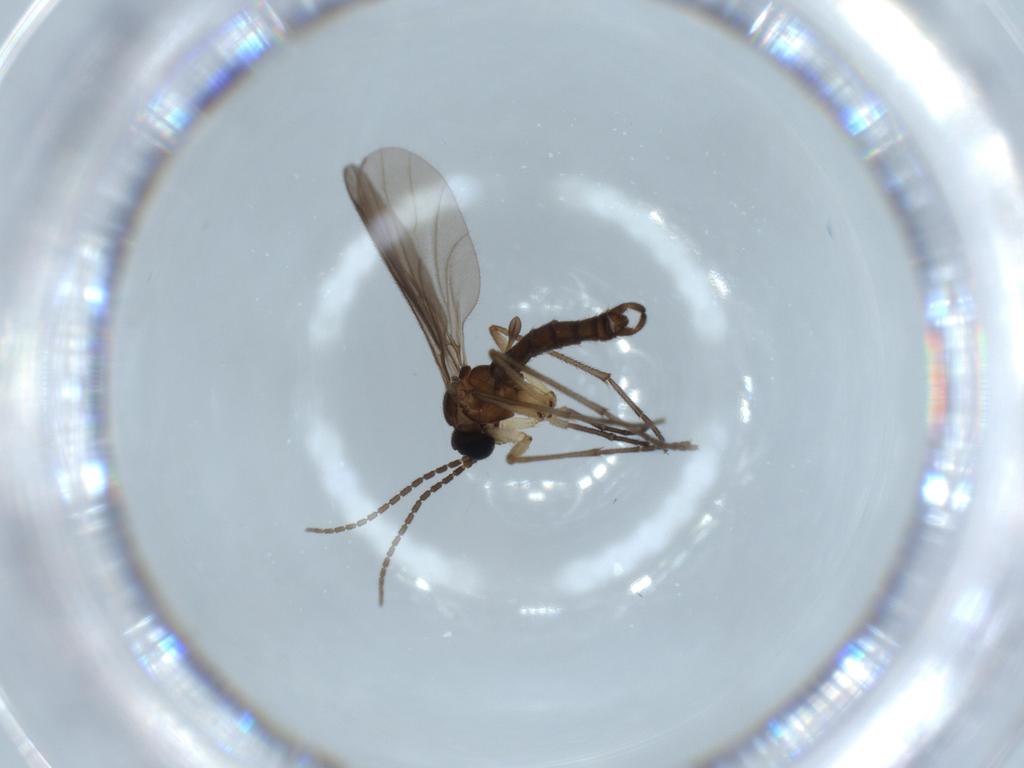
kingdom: Animalia
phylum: Arthropoda
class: Insecta
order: Diptera
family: Sciaridae
